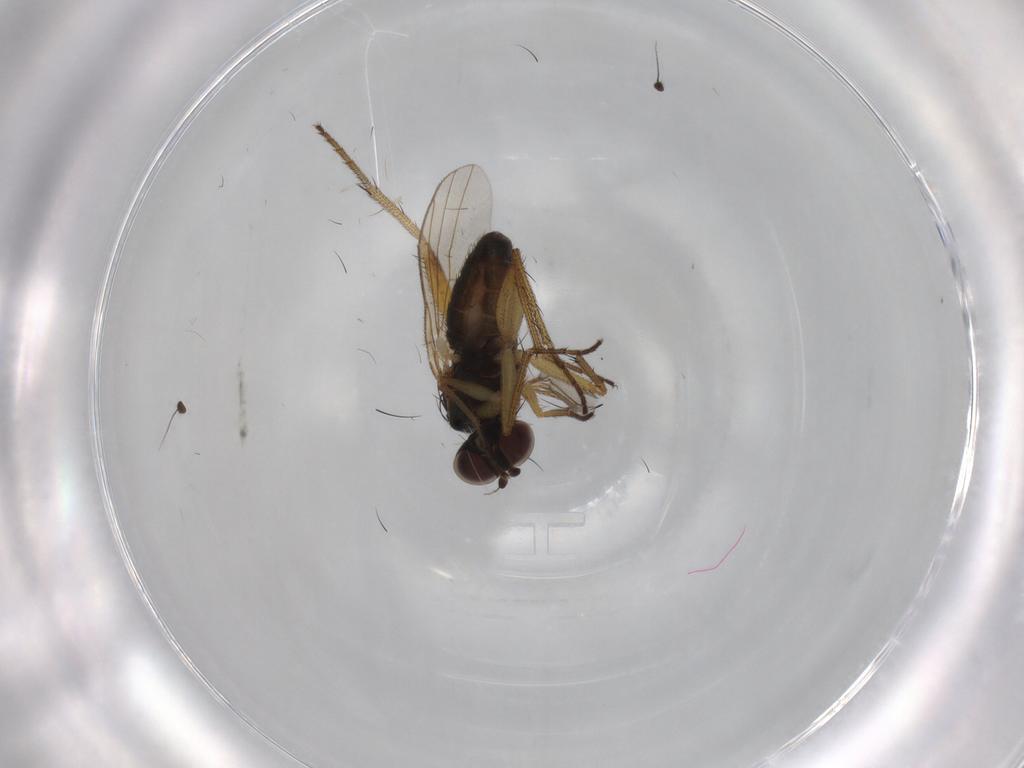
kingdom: Animalia
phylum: Arthropoda
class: Insecta
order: Diptera
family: Dolichopodidae
